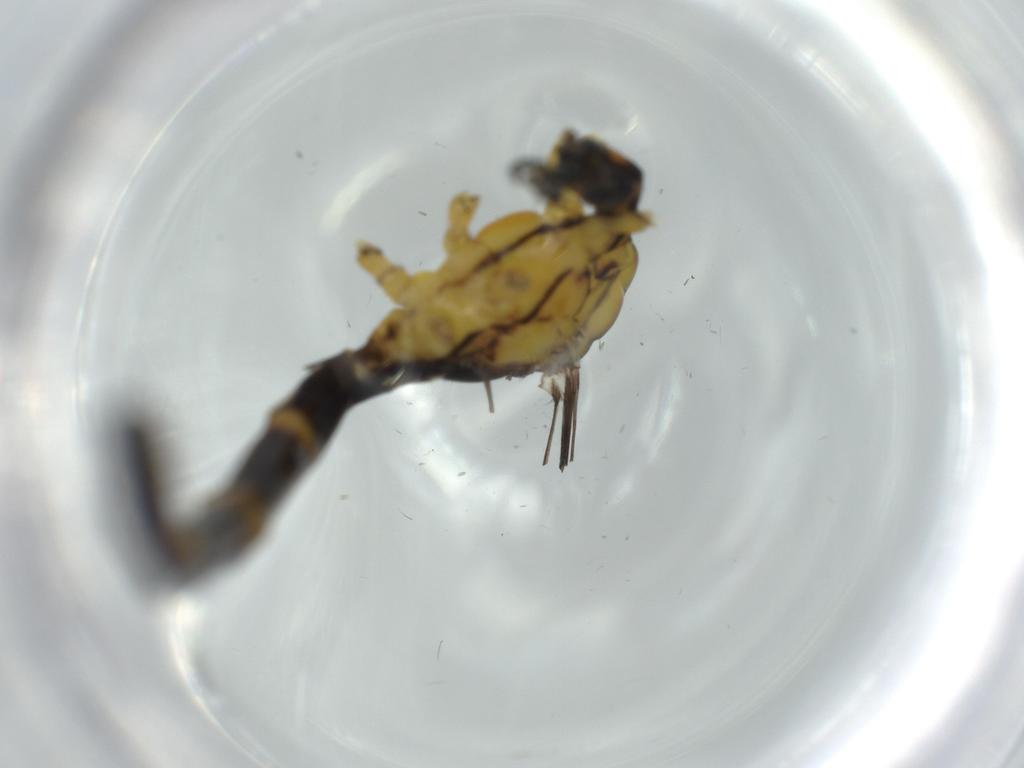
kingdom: Animalia
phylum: Arthropoda
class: Insecta
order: Diptera
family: Limoniidae
